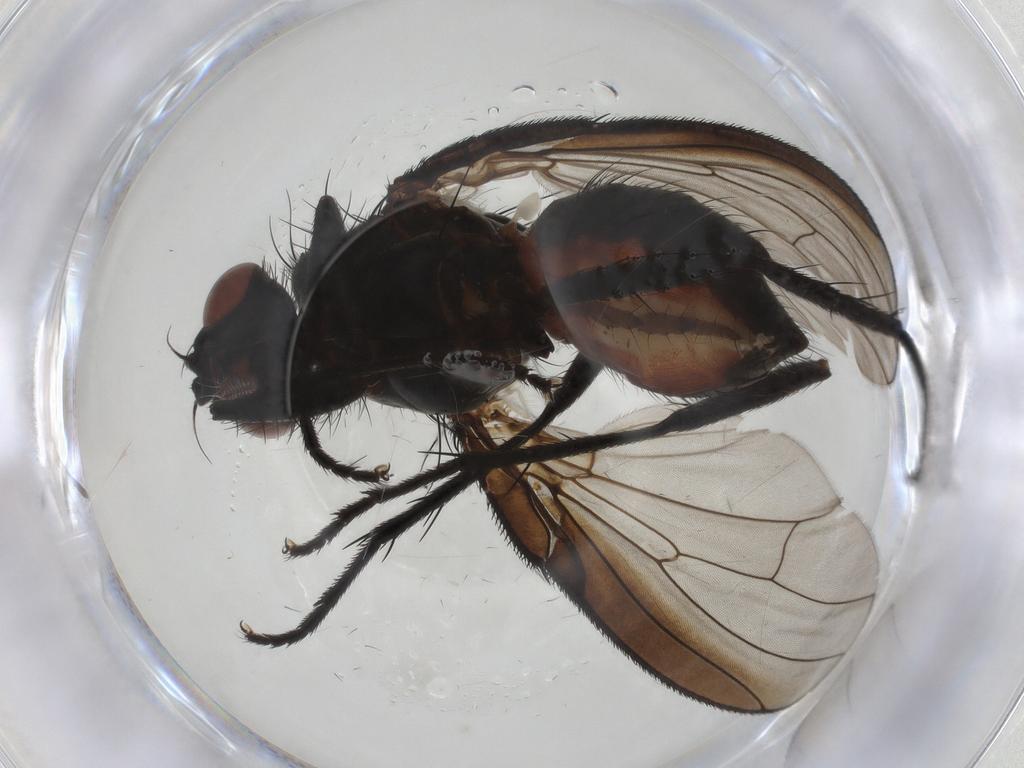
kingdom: Animalia
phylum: Arthropoda
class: Insecta
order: Diptera
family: Anthomyiidae
